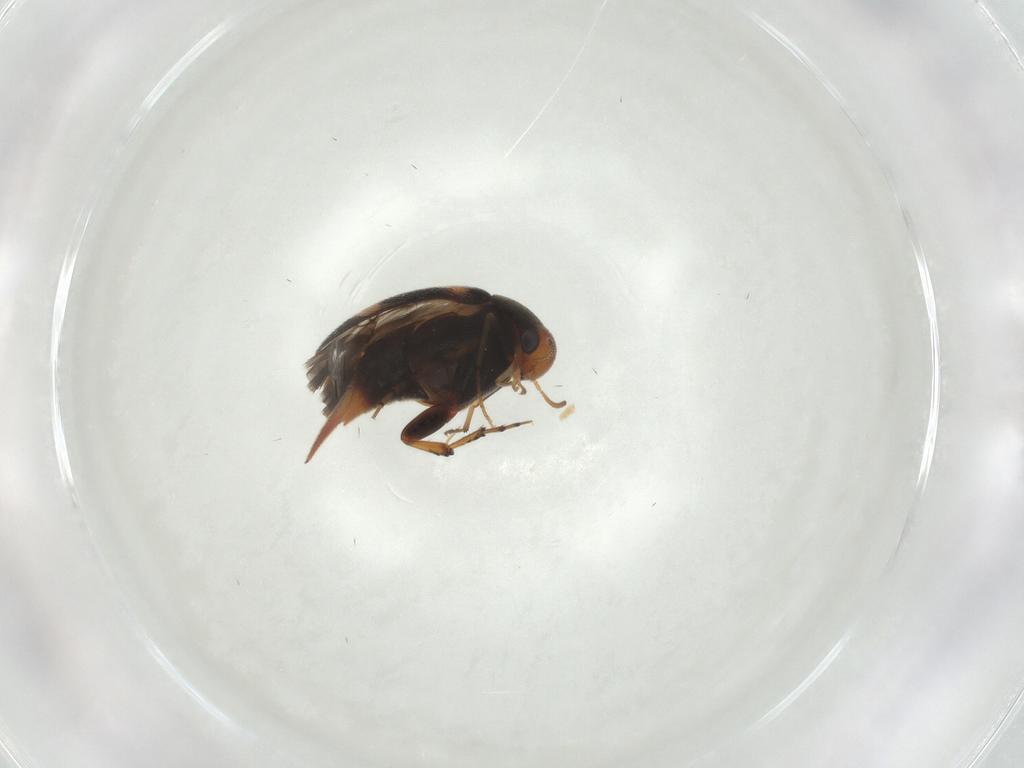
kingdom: Animalia
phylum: Arthropoda
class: Insecta
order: Coleoptera
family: Mordellidae
